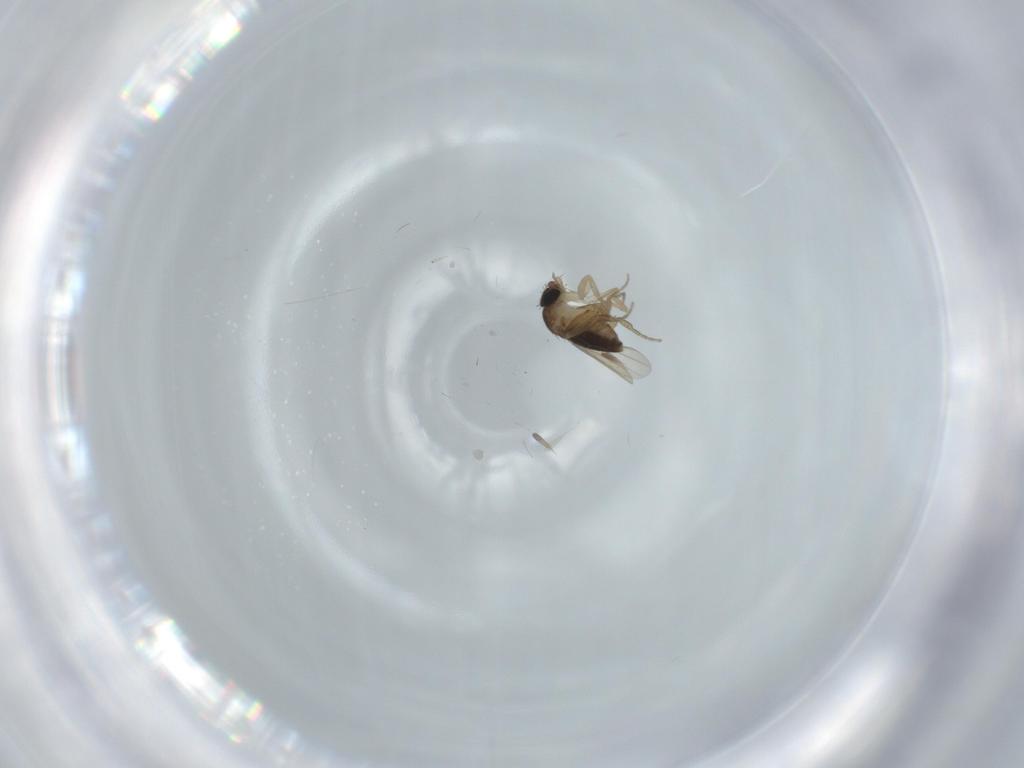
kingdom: Animalia
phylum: Arthropoda
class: Insecta
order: Diptera
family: Phoridae
